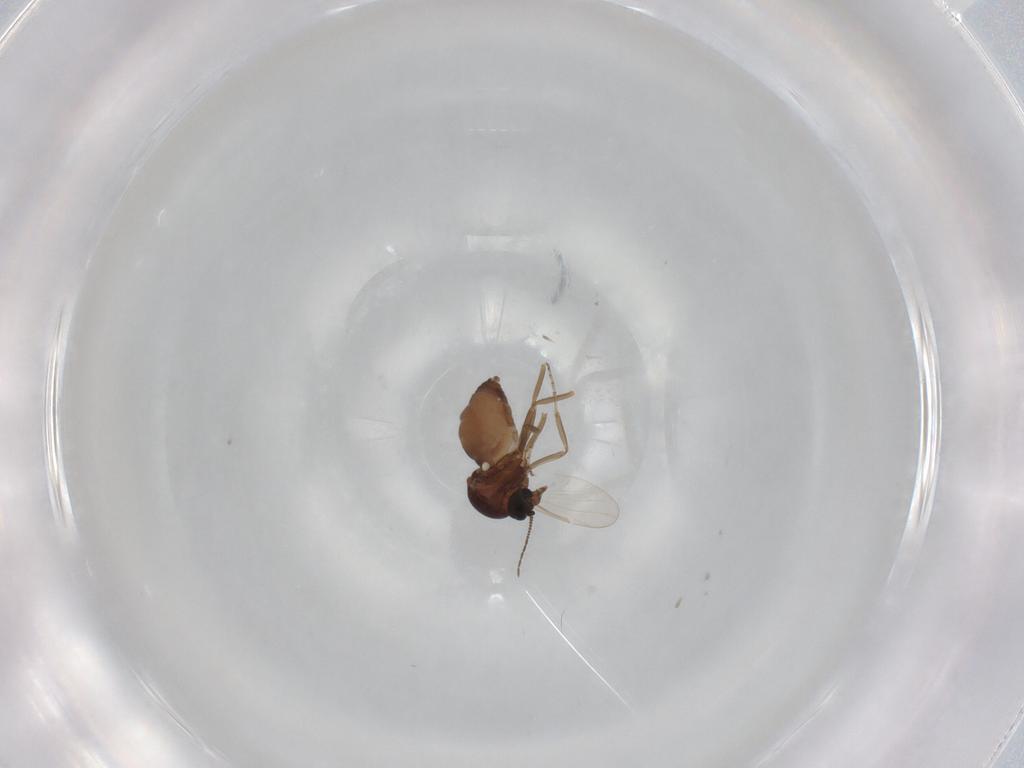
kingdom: Animalia
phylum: Arthropoda
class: Insecta
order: Diptera
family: Ceratopogonidae
